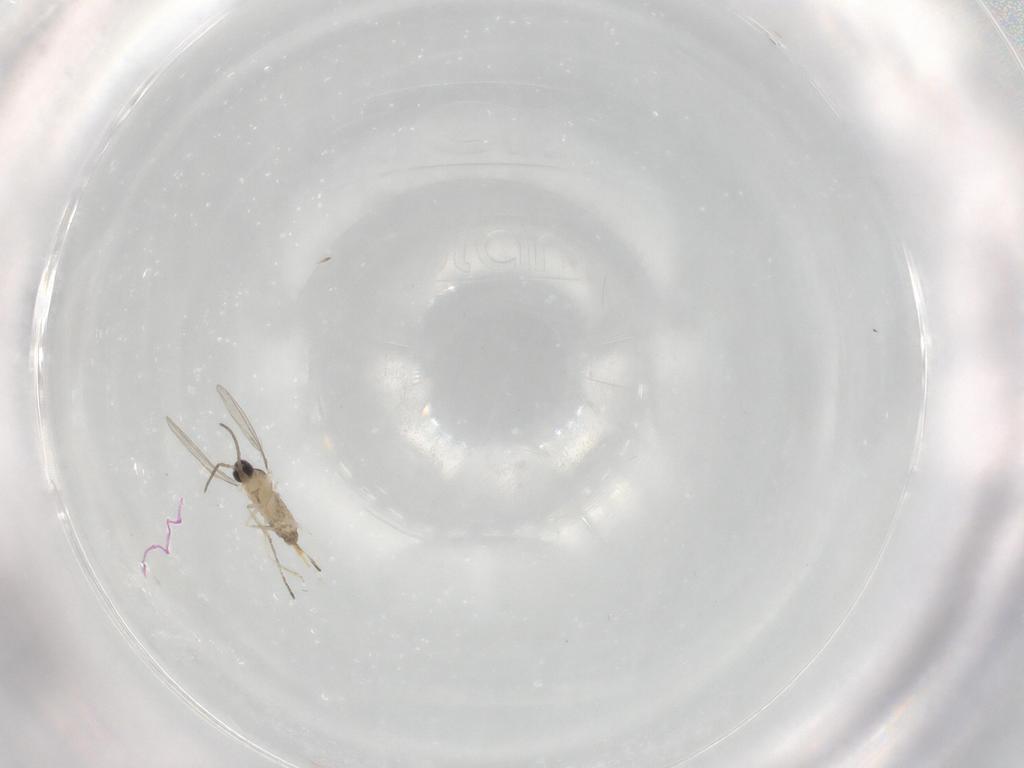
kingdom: Animalia
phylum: Arthropoda
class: Insecta
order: Diptera
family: Cecidomyiidae
